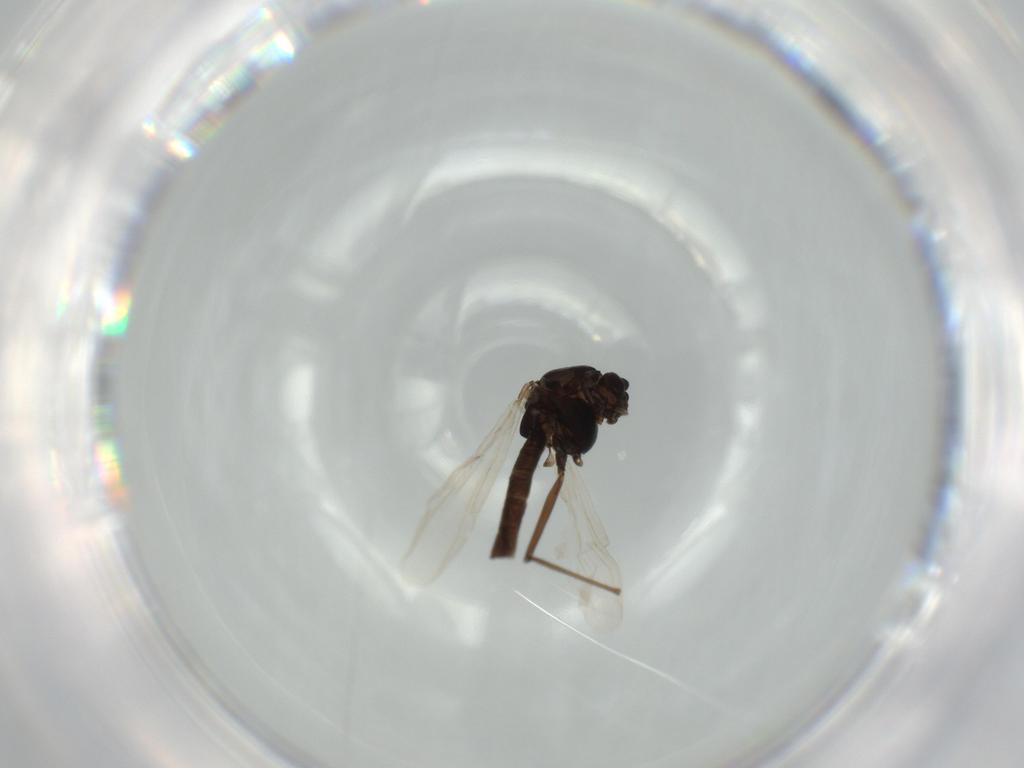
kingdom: Animalia
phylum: Arthropoda
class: Insecta
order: Diptera
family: Chironomidae
